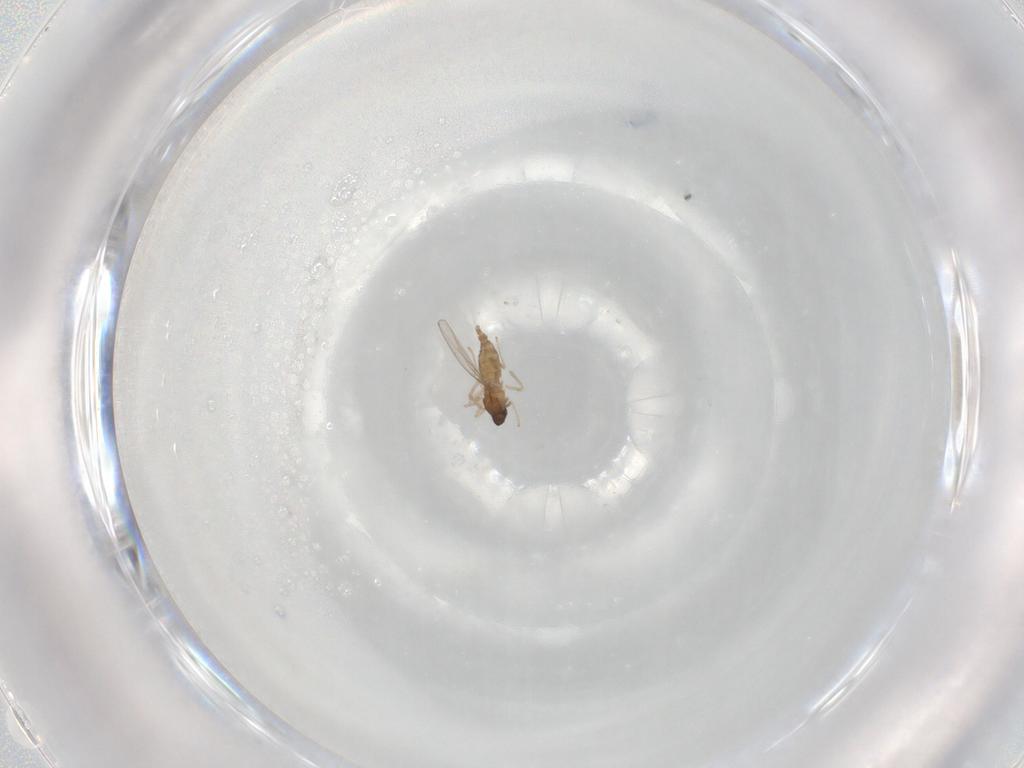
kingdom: Animalia
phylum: Arthropoda
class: Insecta
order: Diptera
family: Cecidomyiidae
